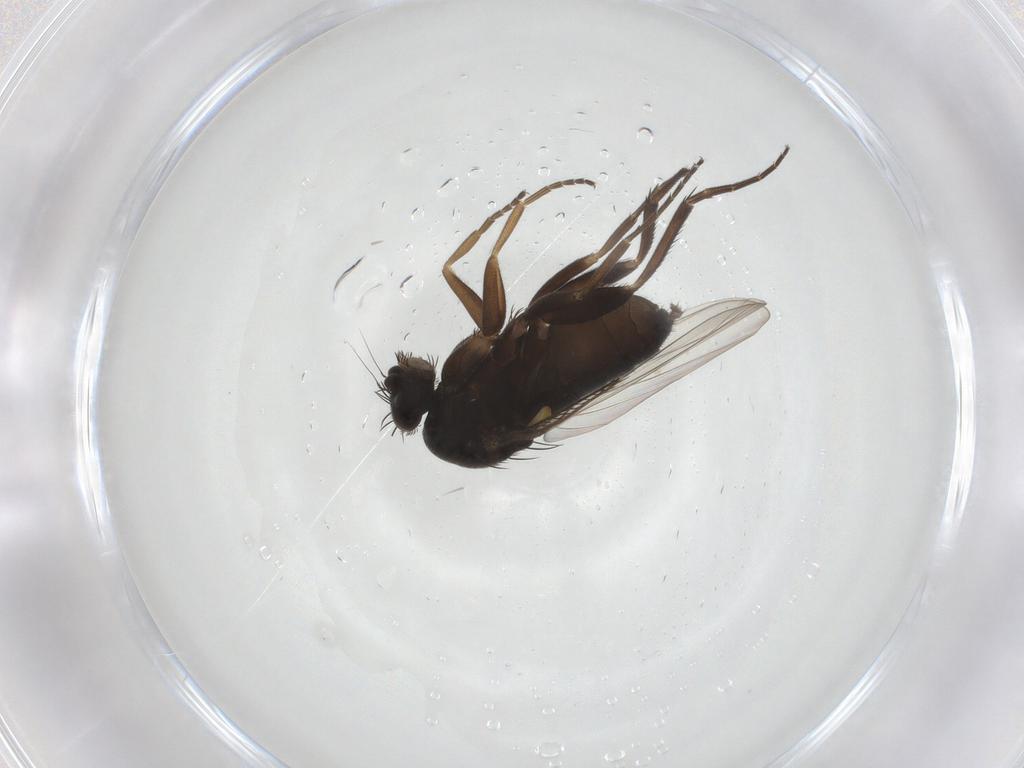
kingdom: Animalia
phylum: Arthropoda
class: Insecta
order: Diptera
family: Phoridae
